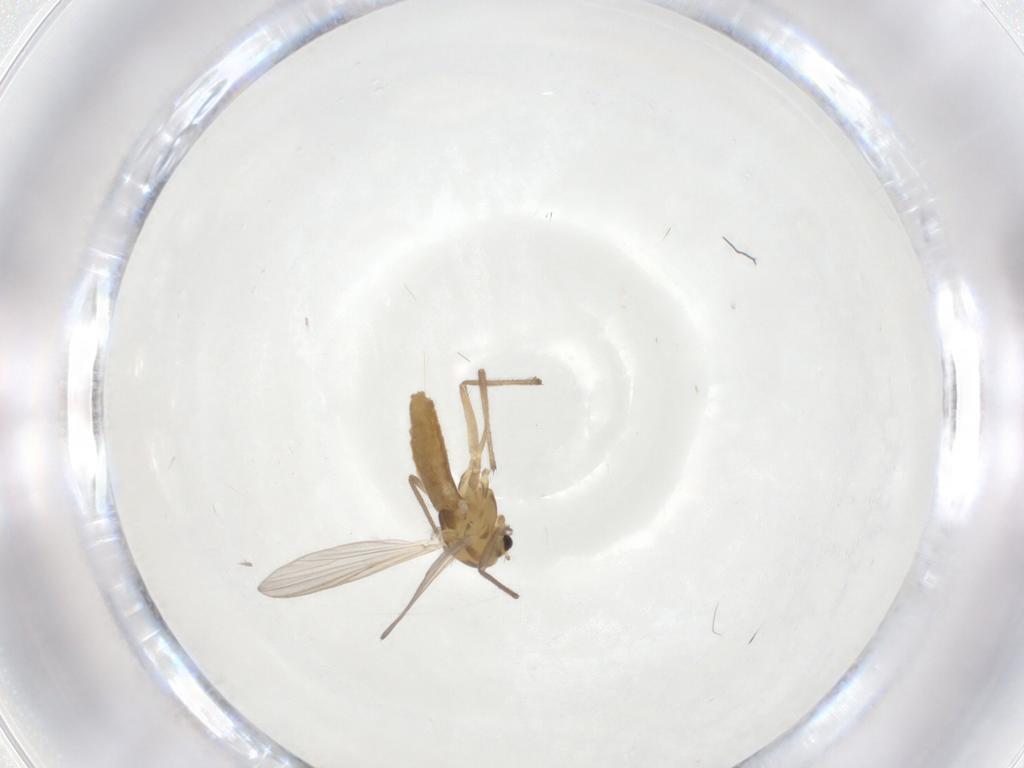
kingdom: Animalia
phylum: Arthropoda
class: Insecta
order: Diptera
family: Chironomidae
